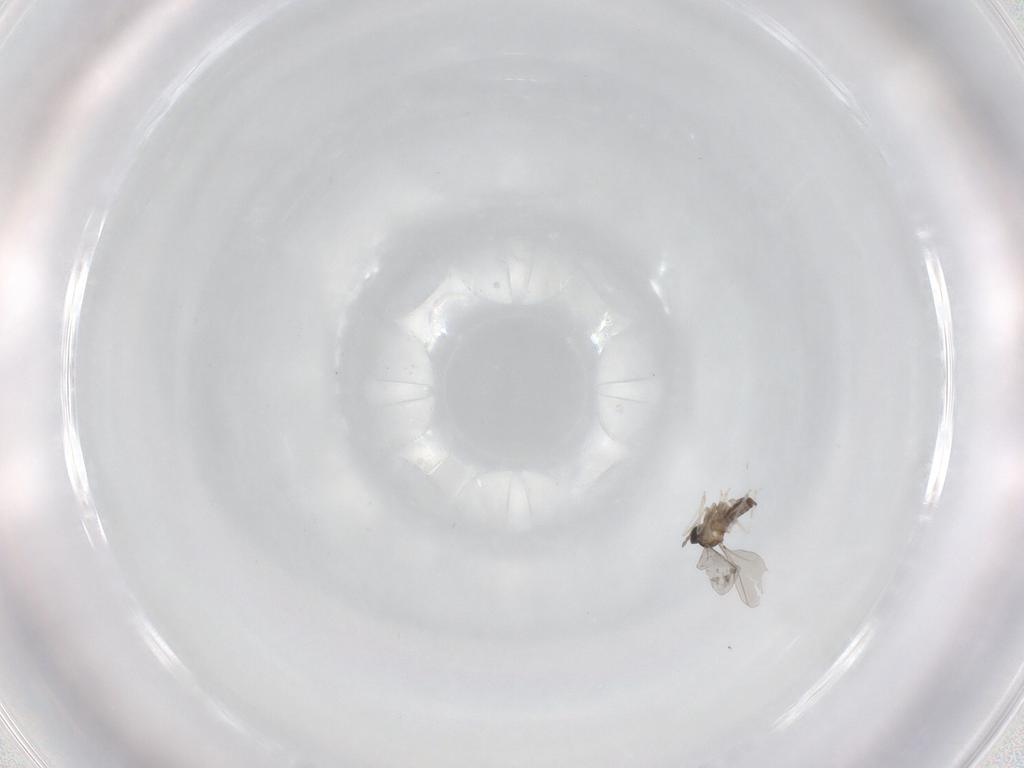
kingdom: Animalia
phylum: Arthropoda
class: Insecta
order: Diptera
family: Cecidomyiidae
